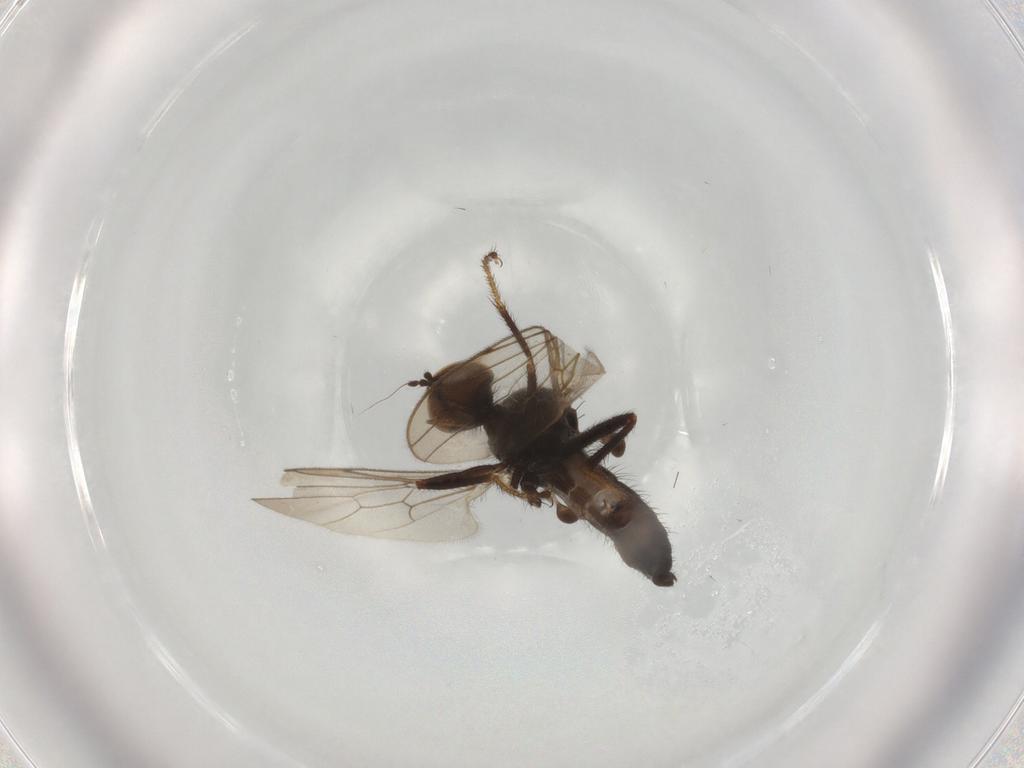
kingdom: Animalia
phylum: Arthropoda
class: Insecta
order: Diptera
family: Hybotidae
